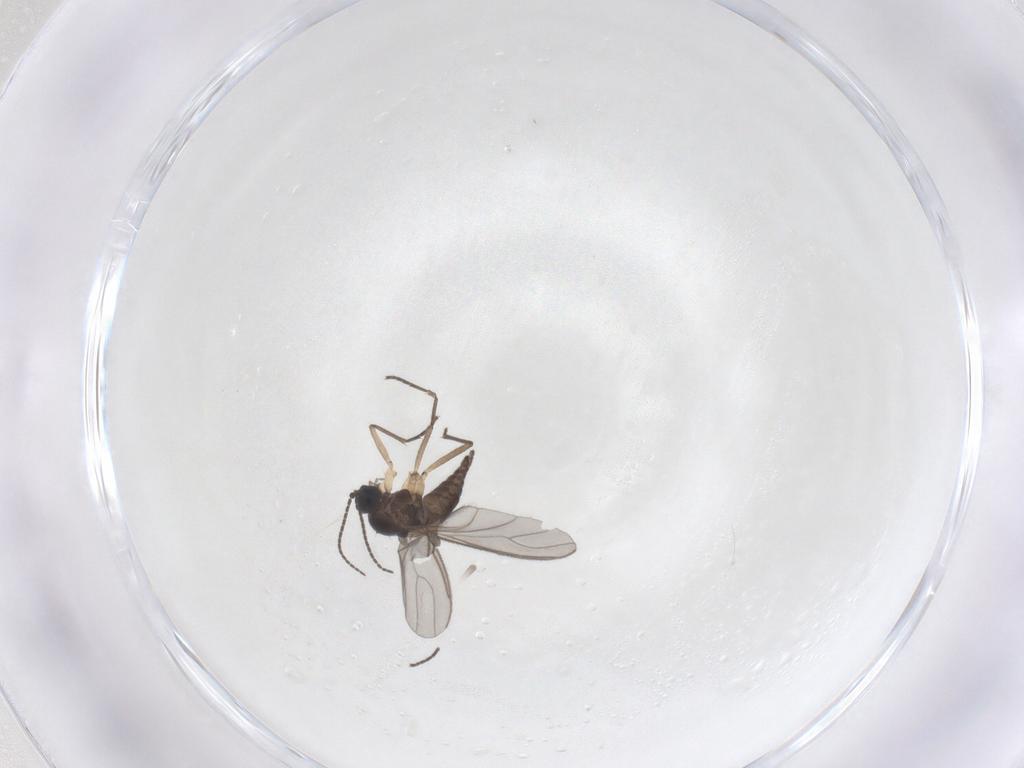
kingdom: Animalia
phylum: Arthropoda
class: Insecta
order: Diptera
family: Sciaridae
